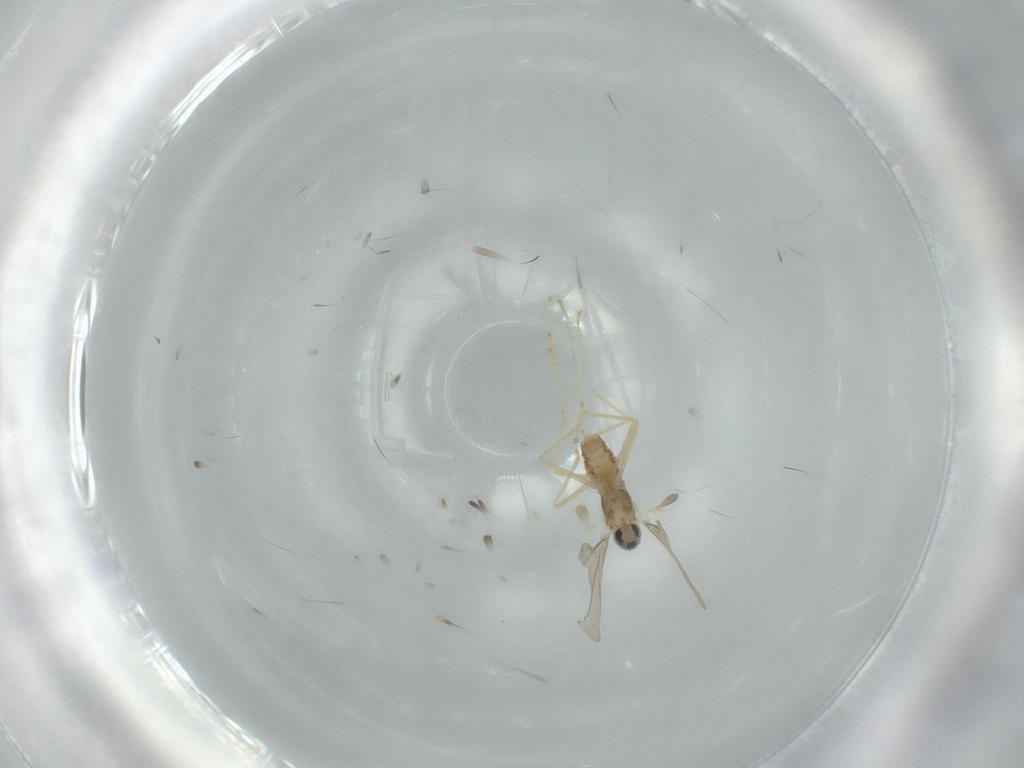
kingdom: Animalia
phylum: Arthropoda
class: Insecta
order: Diptera
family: Cecidomyiidae
